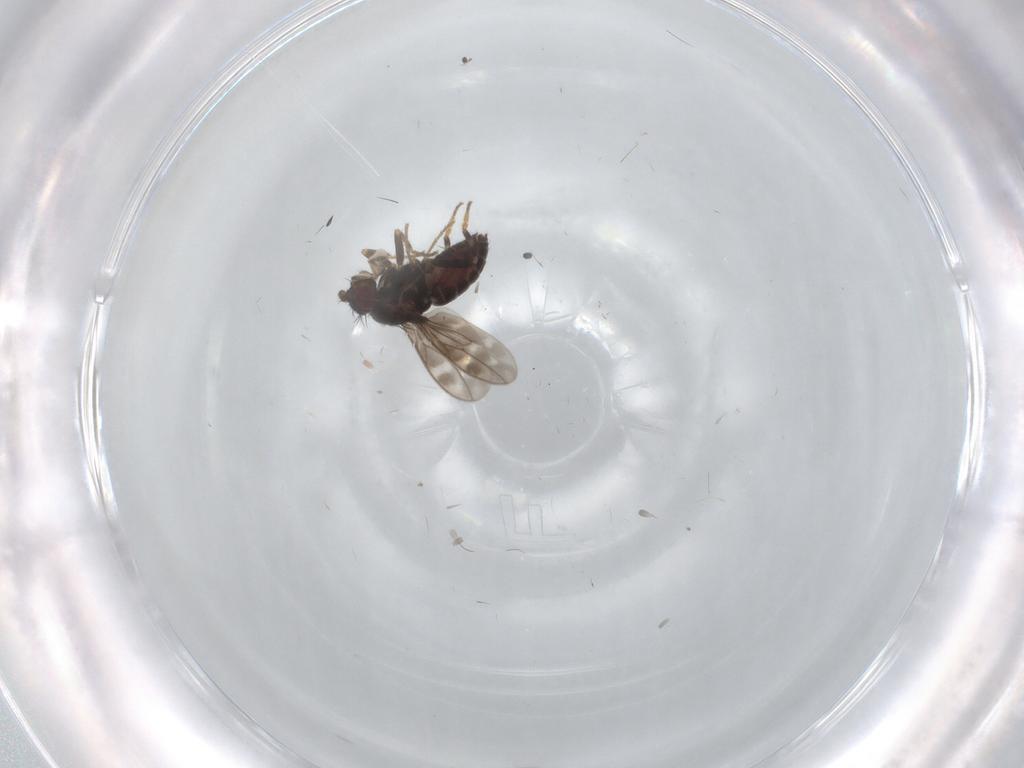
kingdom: Animalia
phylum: Arthropoda
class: Insecta
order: Diptera
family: Sphaeroceridae
